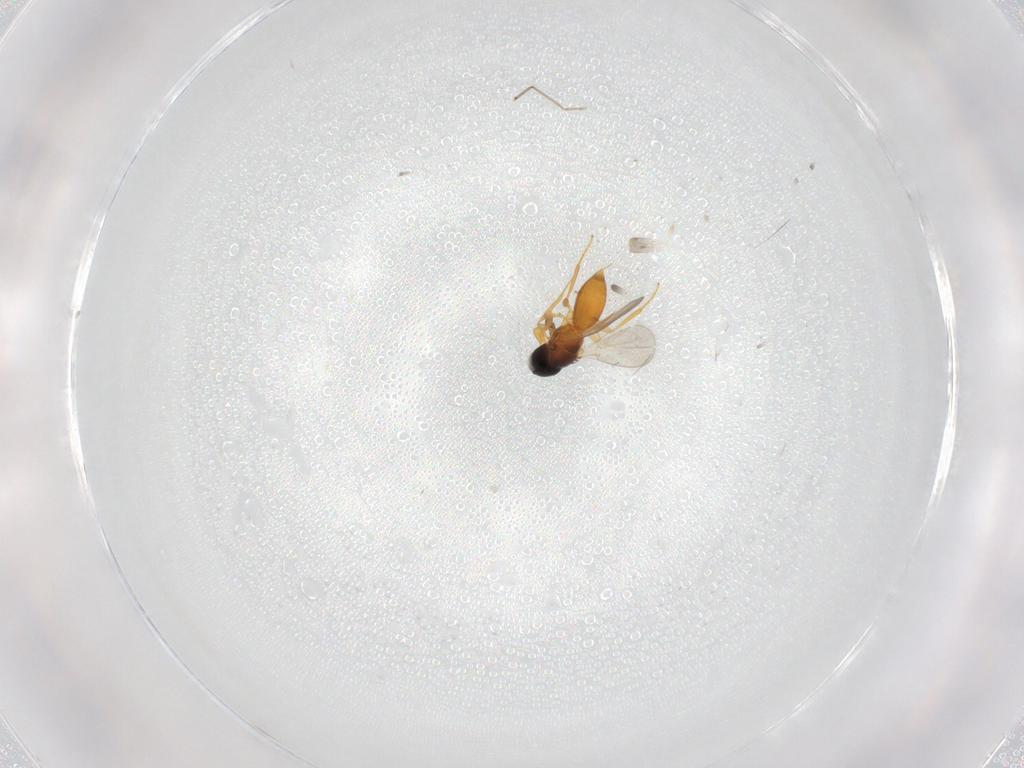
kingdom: Animalia
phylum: Arthropoda
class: Insecta
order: Hymenoptera
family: Platygastridae
